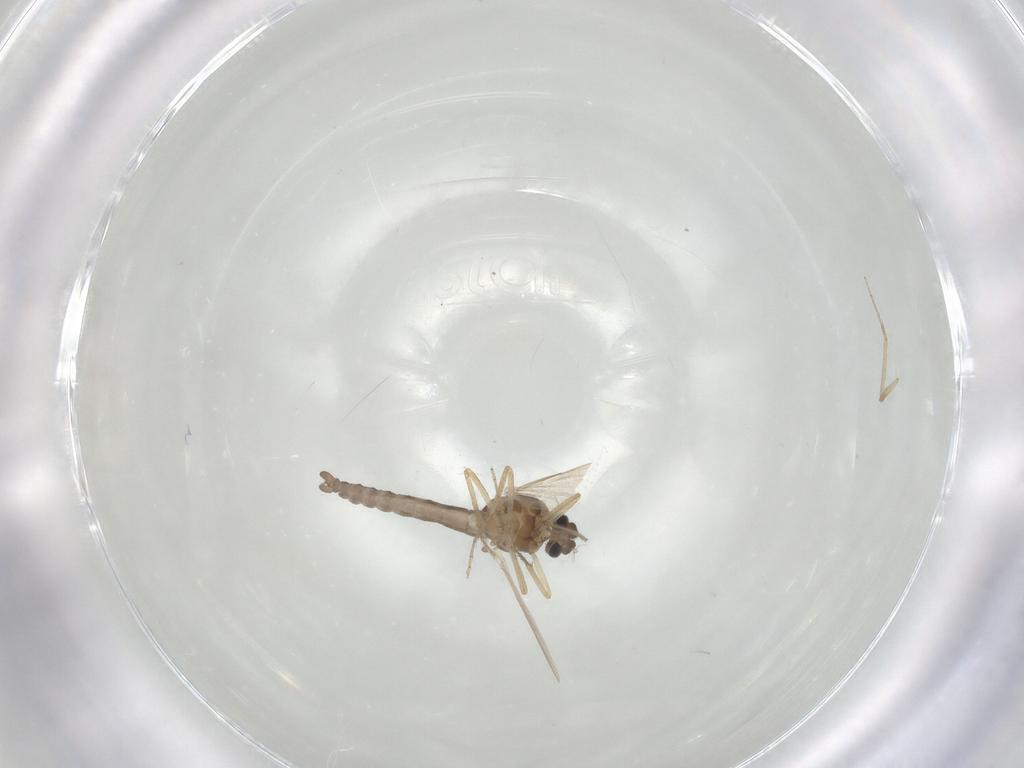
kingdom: Animalia
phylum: Arthropoda
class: Insecta
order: Diptera
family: Ceratopogonidae
